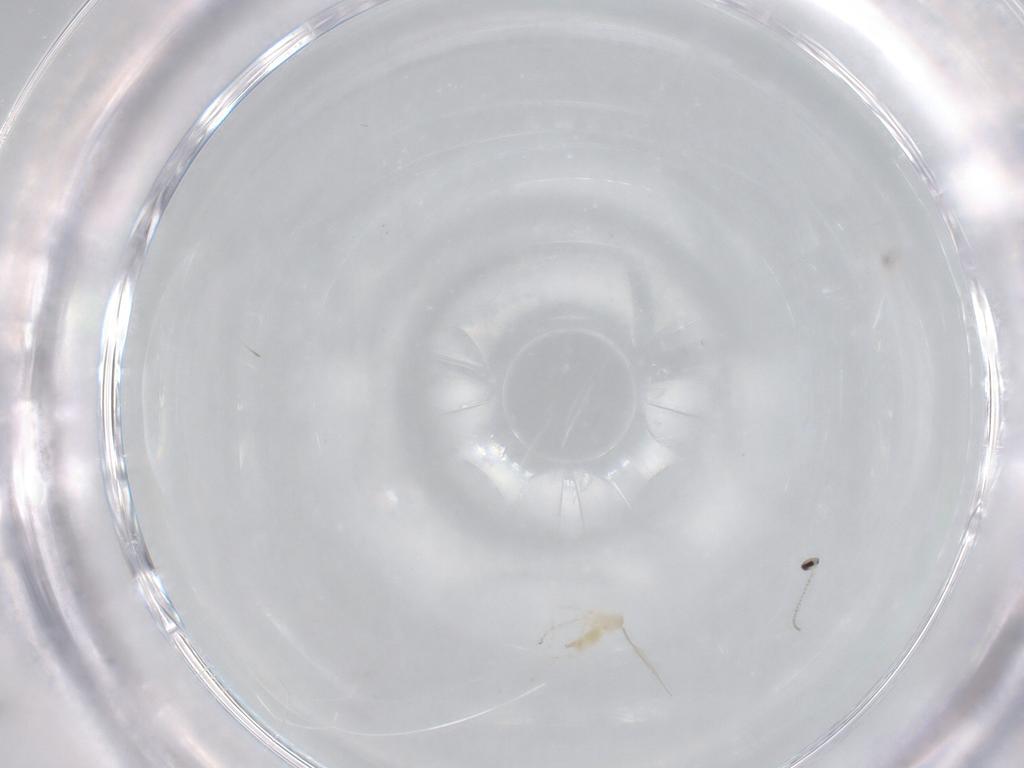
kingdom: Animalia
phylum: Arthropoda
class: Insecta
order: Diptera
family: Cecidomyiidae
